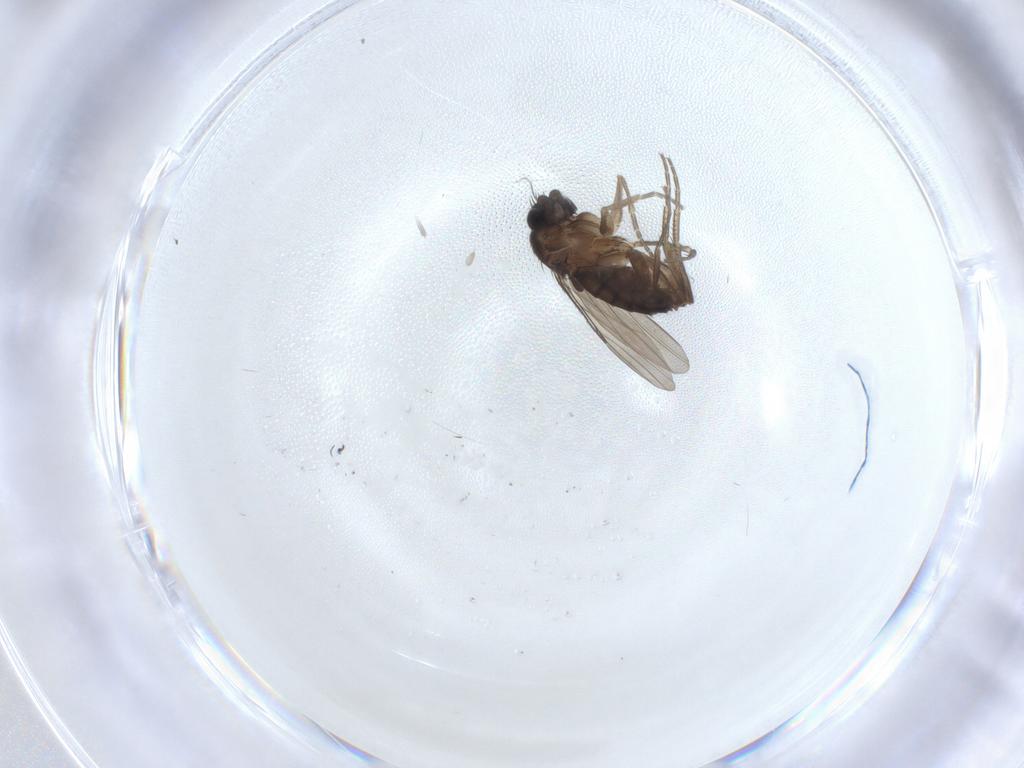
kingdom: Animalia
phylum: Arthropoda
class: Insecta
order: Diptera
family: Phoridae
